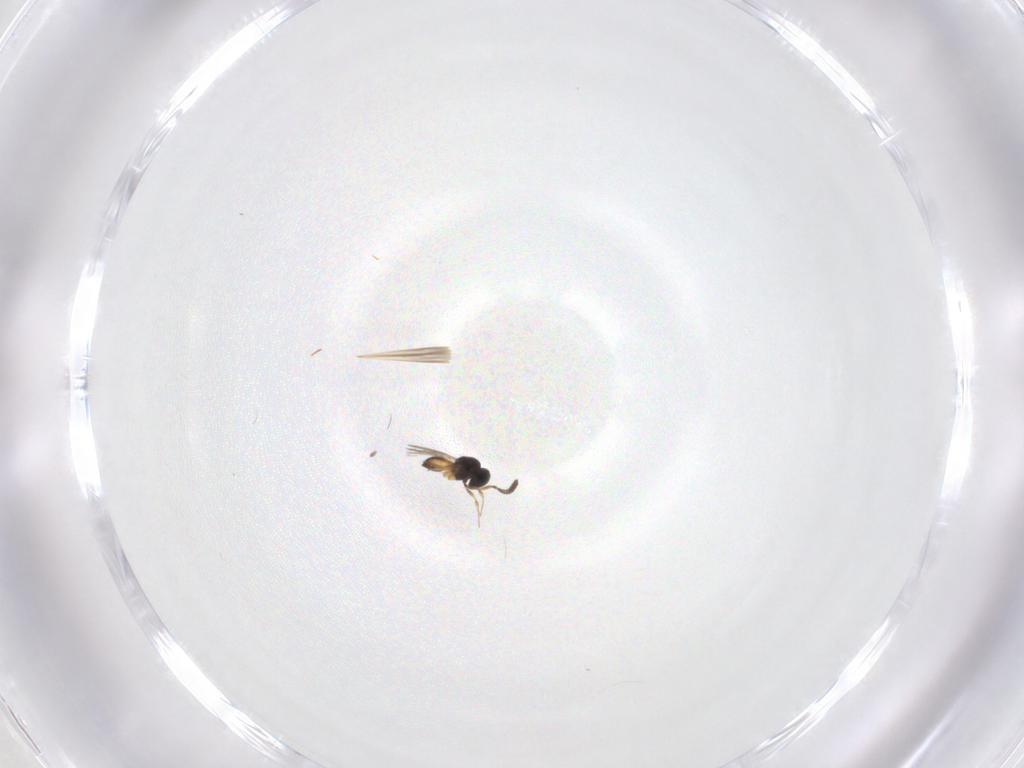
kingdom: Animalia
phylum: Arthropoda
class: Insecta
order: Hymenoptera
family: Scelionidae
